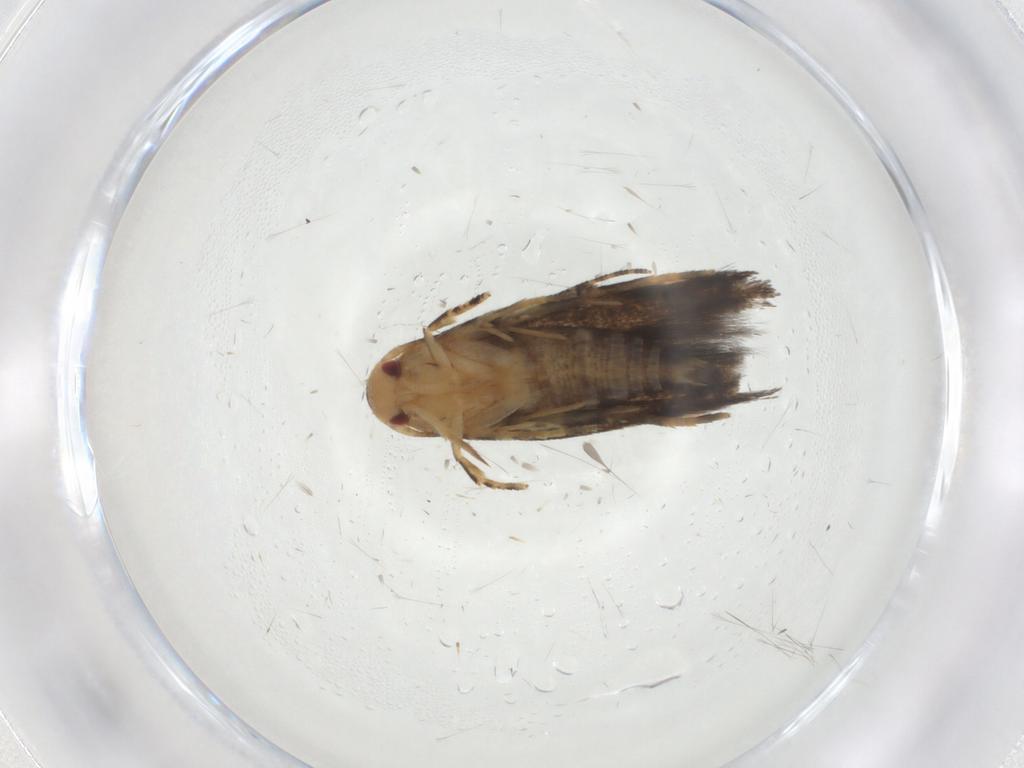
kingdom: Animalia
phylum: Arthropoda
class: Insecta
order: Lepidoptera
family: Momphidae
